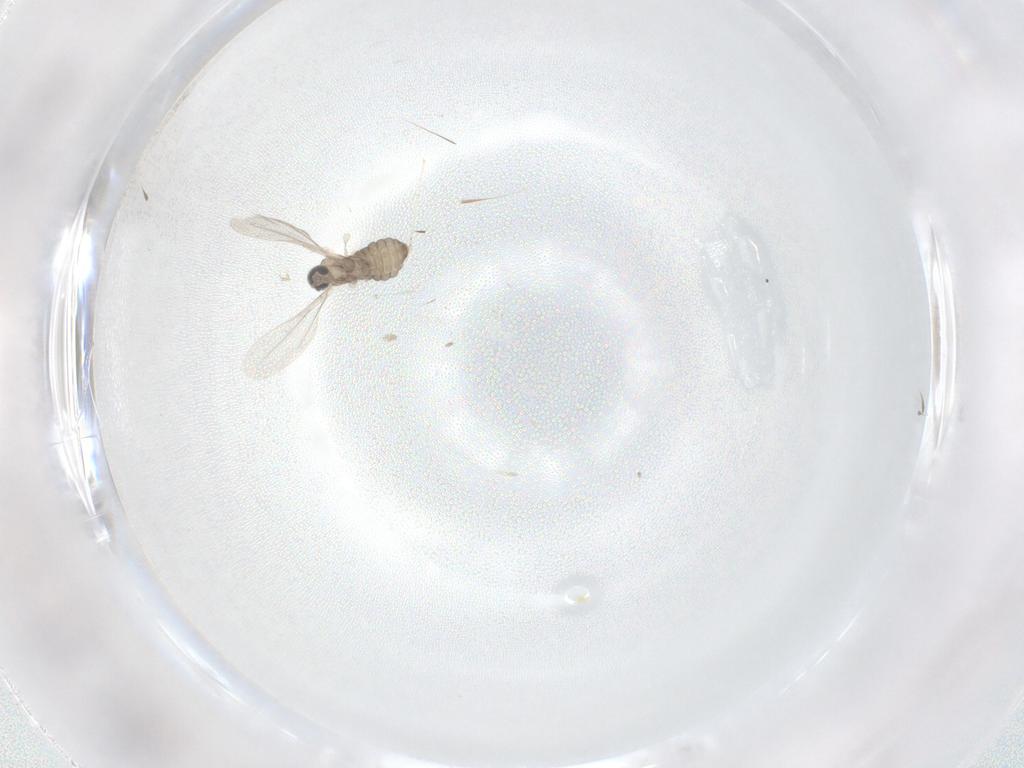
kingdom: Animalia
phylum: Arthropoda
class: Insecta
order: Diptera
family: Cecidomyiidae
